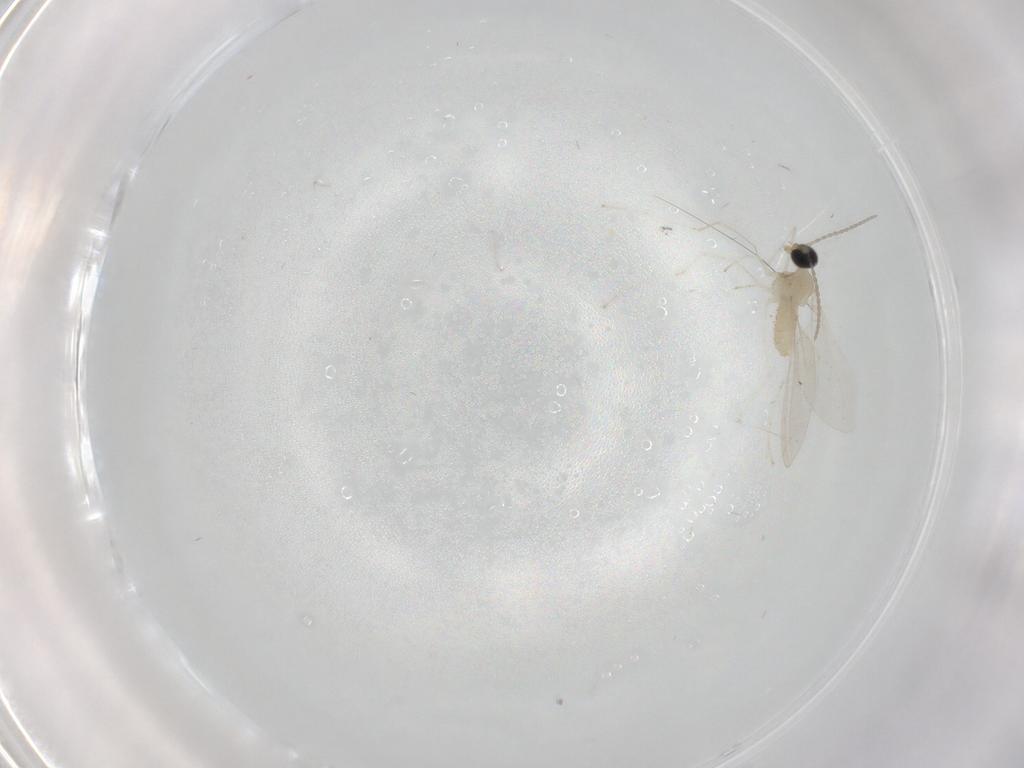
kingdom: Animalia
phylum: Arthropoda
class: Insecta
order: Diptera
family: Cecidomyiidae
